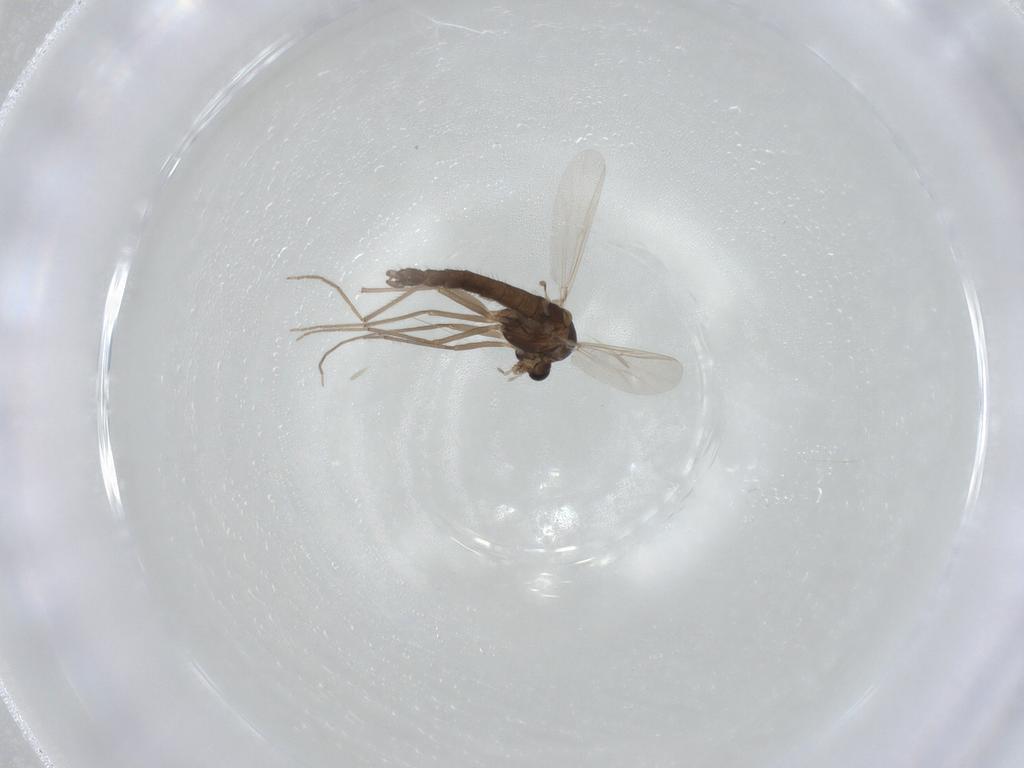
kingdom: Animalia
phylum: Arthropoda
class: Insecta
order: Diptera
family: Chironomidae
